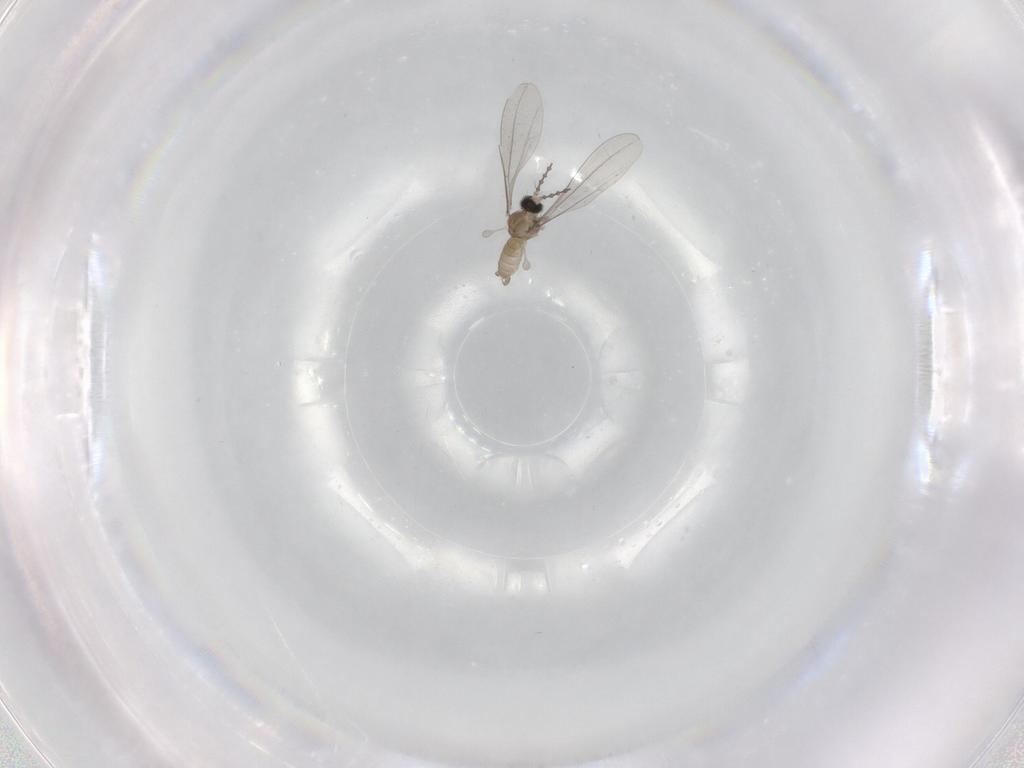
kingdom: Animalia
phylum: Arthropoda
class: Insecta
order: Diptera
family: Cecidomyiidae
